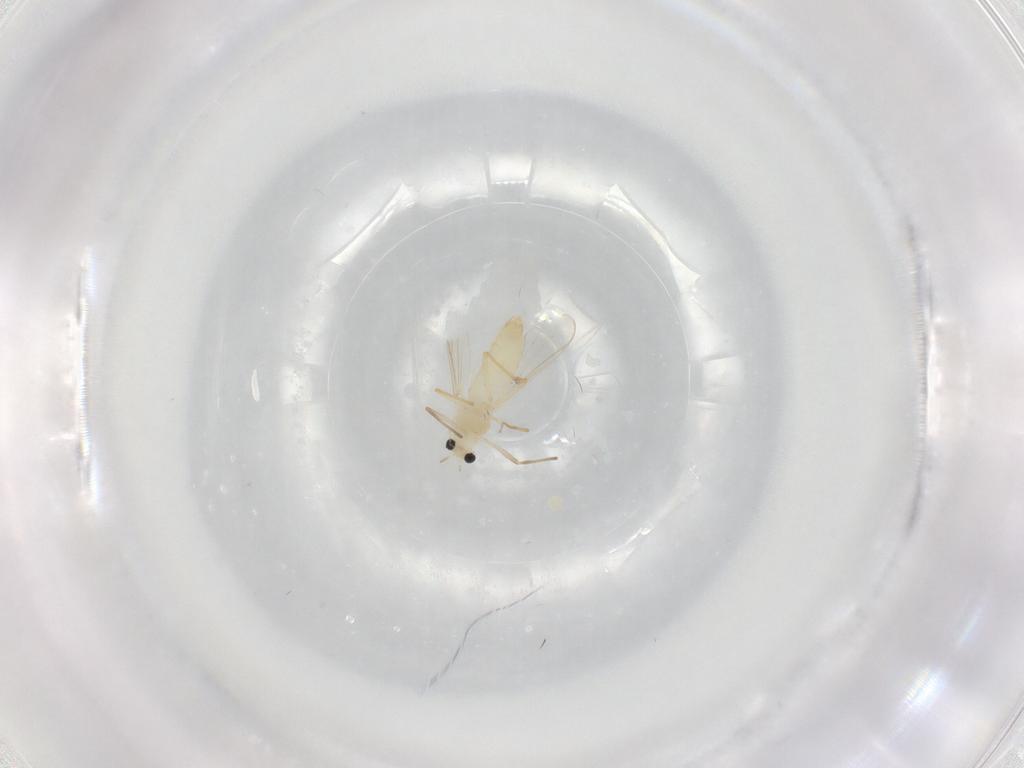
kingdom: Animalia
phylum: Arthropoda
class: Insecta
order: Diptera
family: Chironomidae
